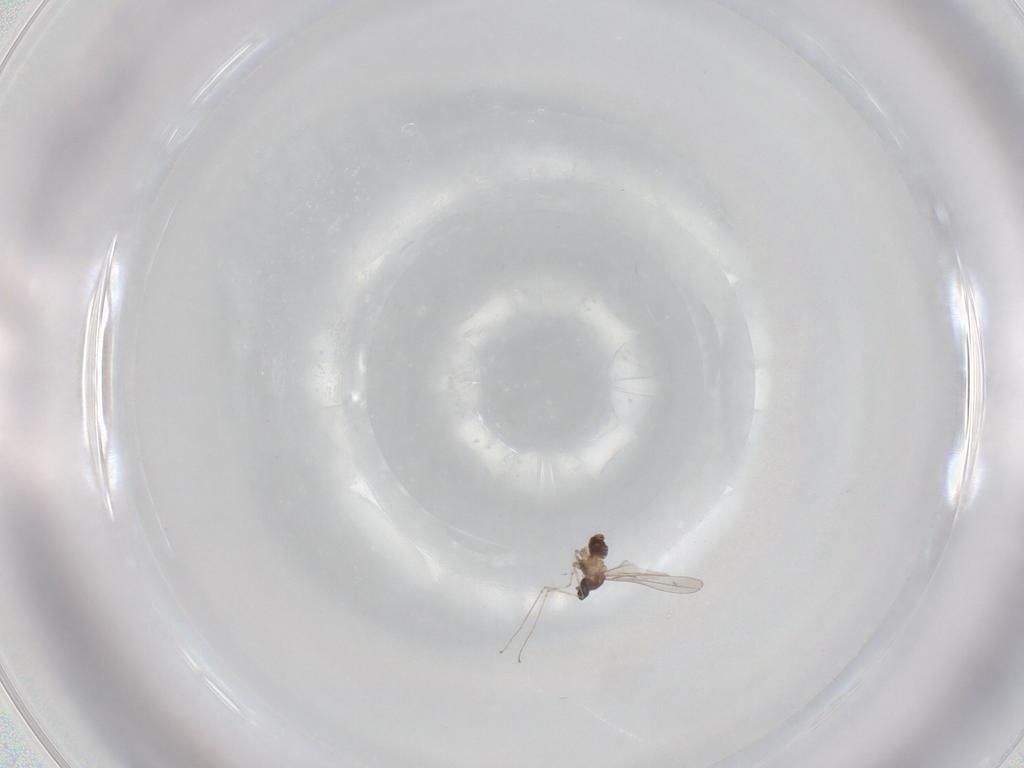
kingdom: Animalia
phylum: Arthropoda
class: Insecta
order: Diptera
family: Cecidomyiidae
